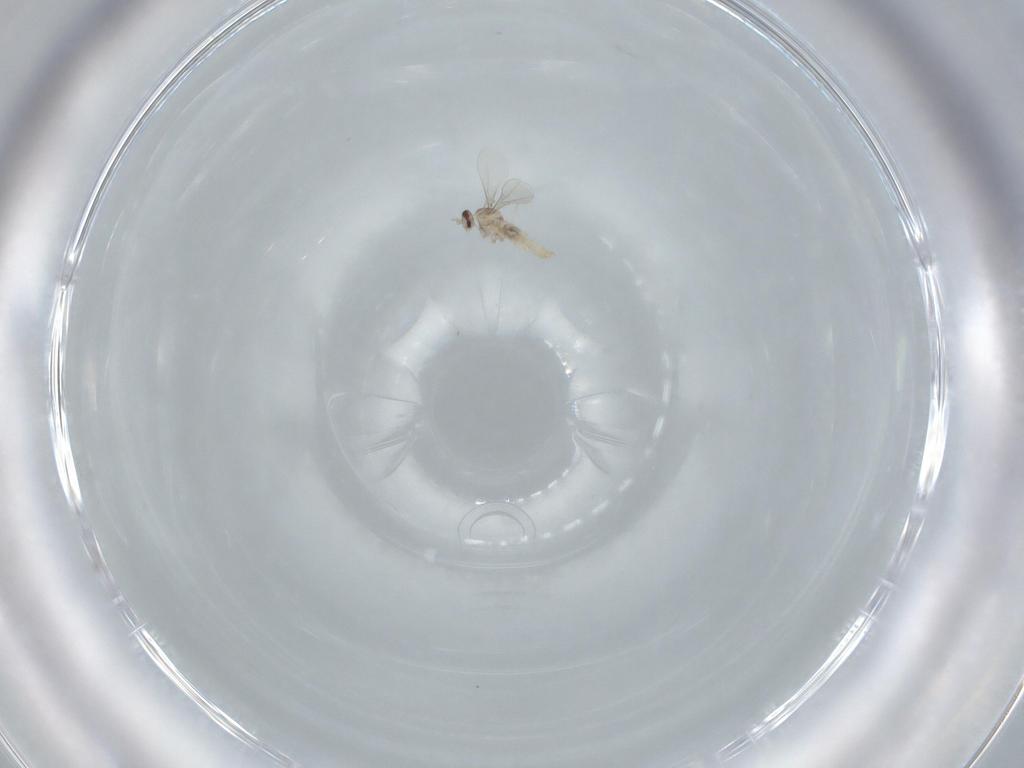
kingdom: Animalia
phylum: Arthropoda
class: Insecta
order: Diptera
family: Cecidomyiidae
